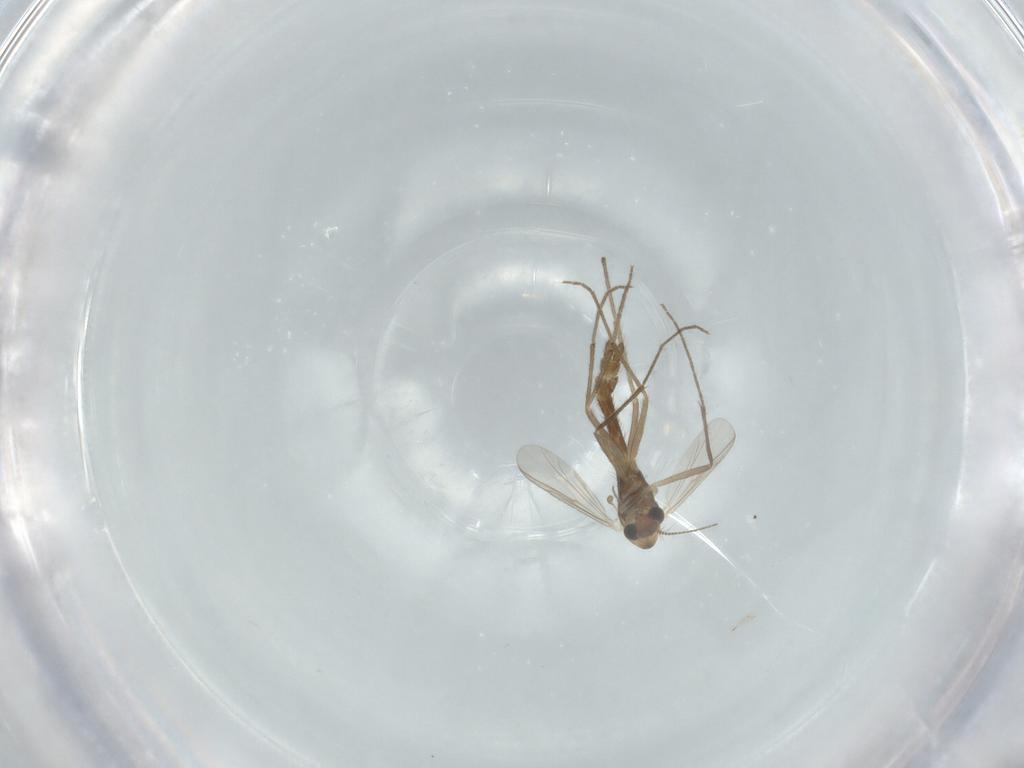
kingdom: Animalia
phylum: Arthropoda
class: Insecta
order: Diptera
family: Chironomidae
